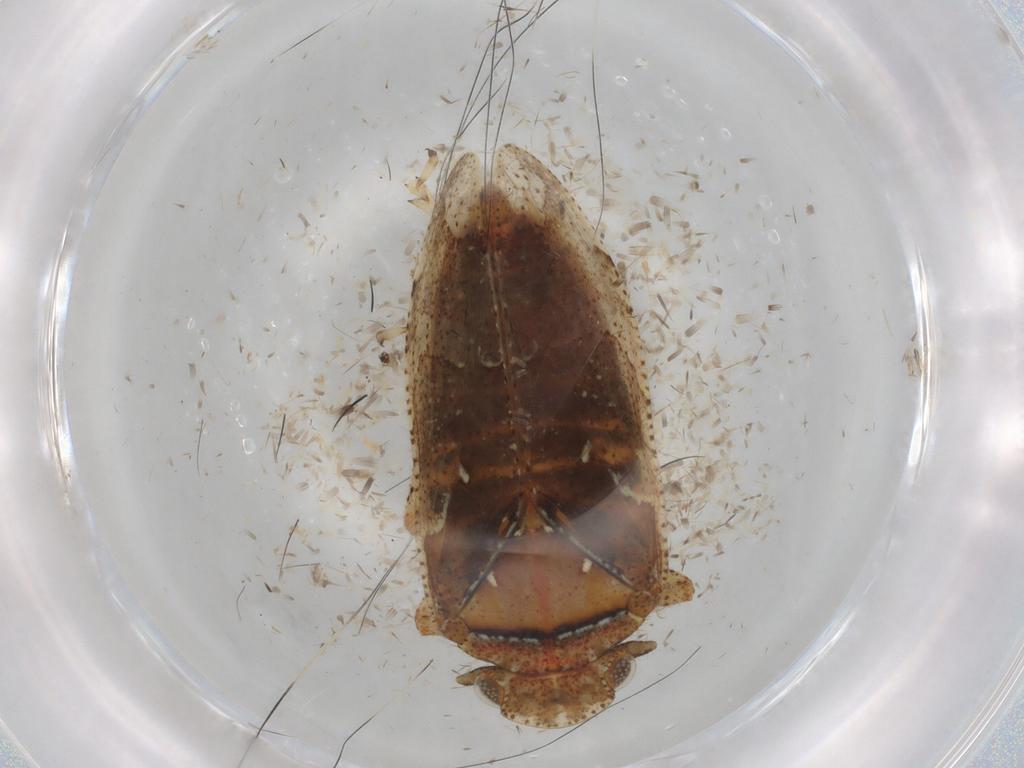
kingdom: Animalia
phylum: Arthropoda
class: Insecta
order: Hemiptera
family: Tettigometridae
